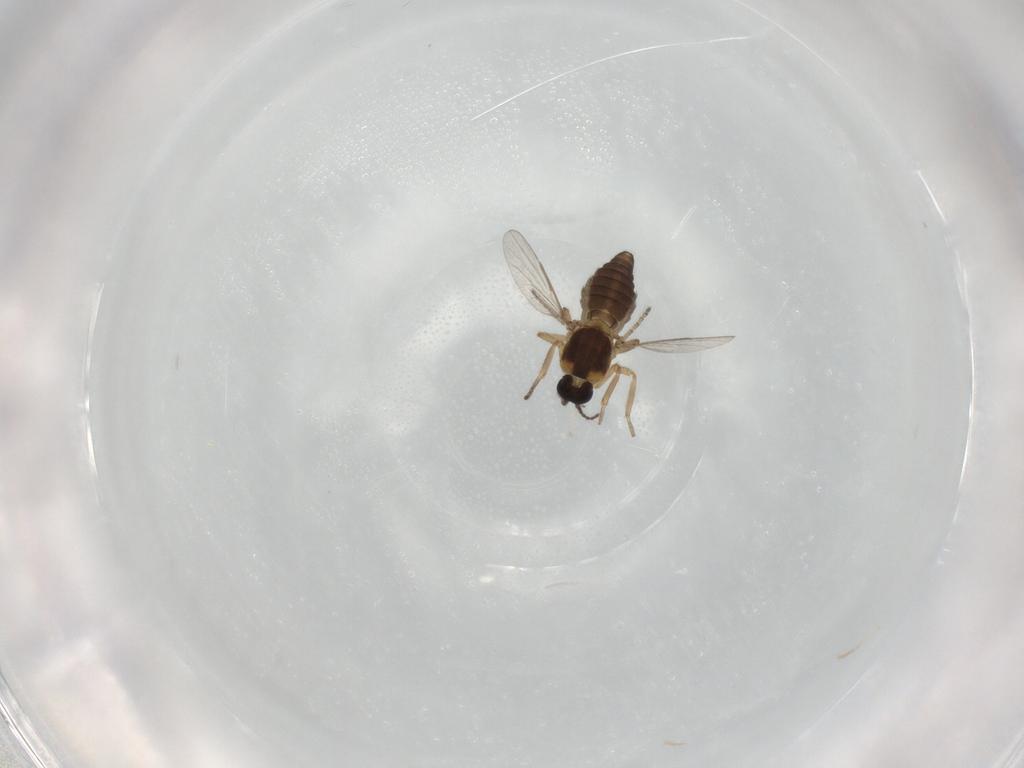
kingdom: Animalia
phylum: Arthropoda
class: Insecta
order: Diptera
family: Ceratopogonidae
